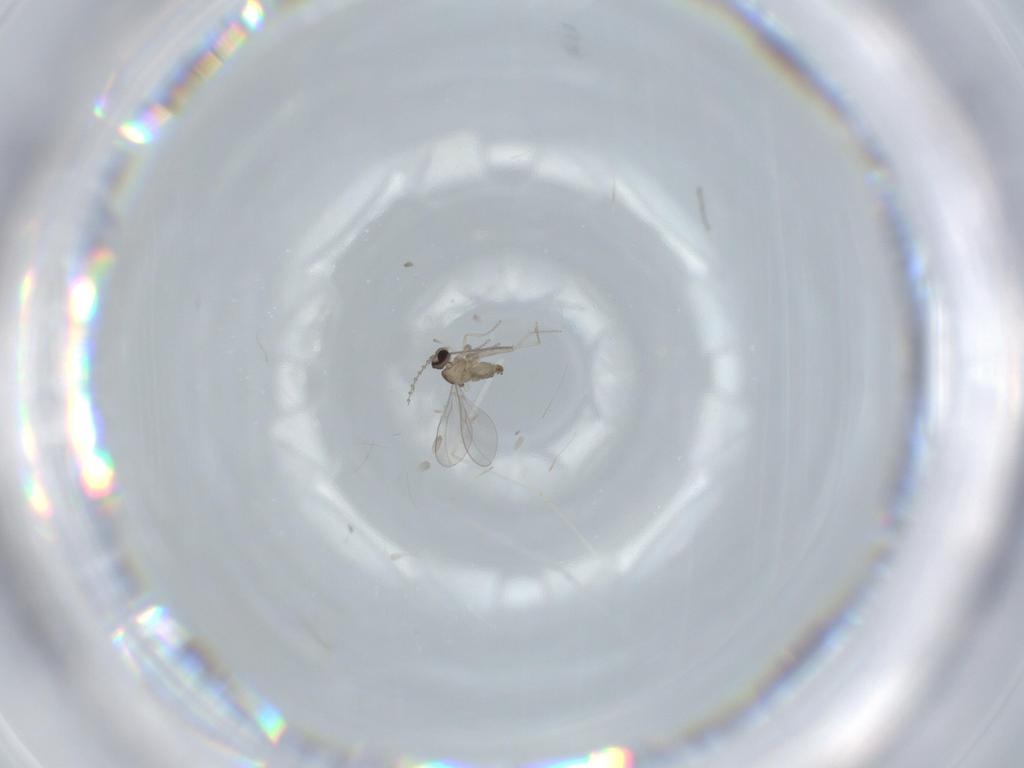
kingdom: Animalia
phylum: Arthropoda
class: Insecta
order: Diptera
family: Cecidomyiidae
